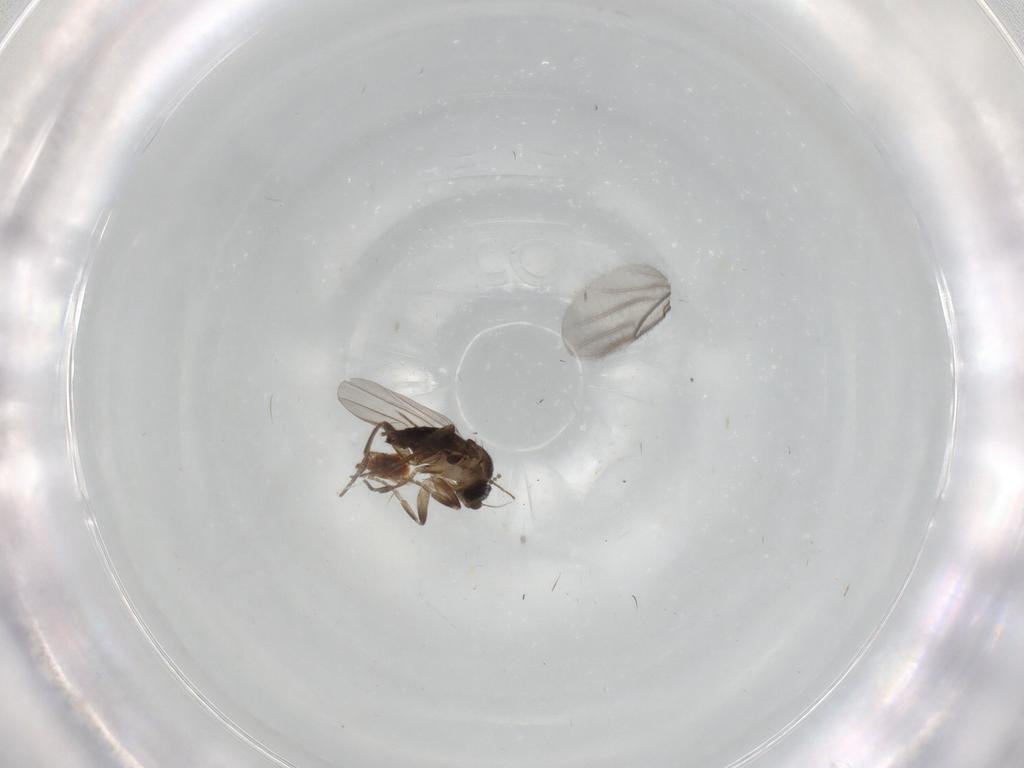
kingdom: Animalia
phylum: Arthropoda
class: Insecta
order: Diptera
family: Cecidomyiidae
